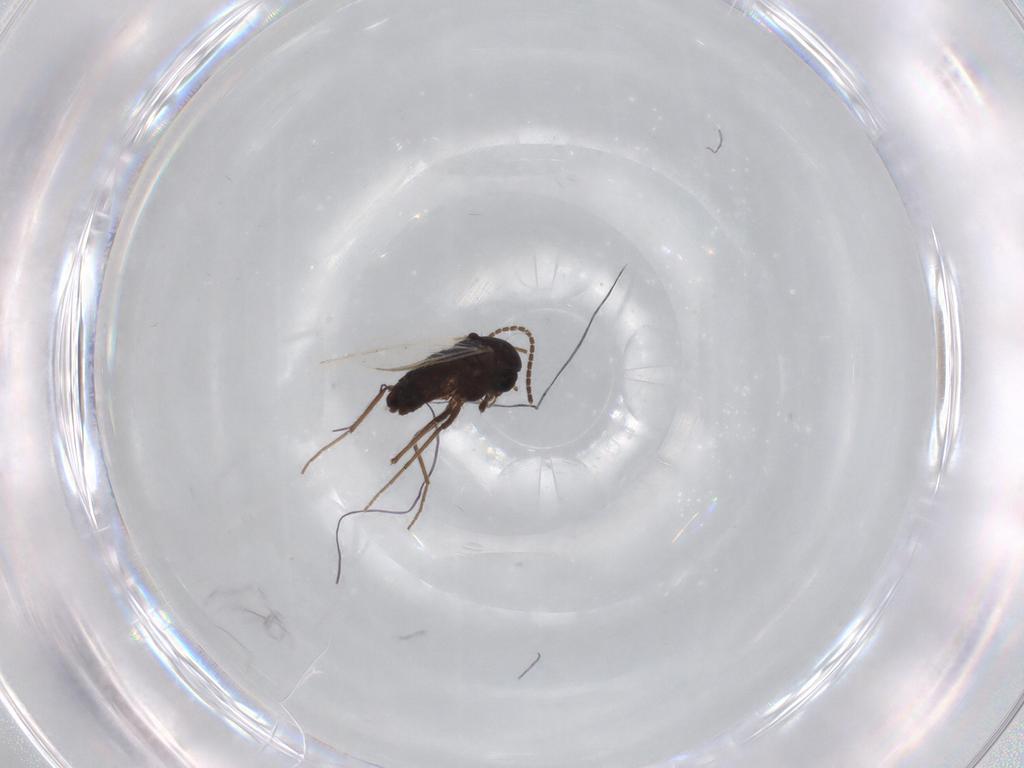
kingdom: Animalia
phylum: Arthropoda
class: Insecta
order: Diptera
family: Sciaridae
